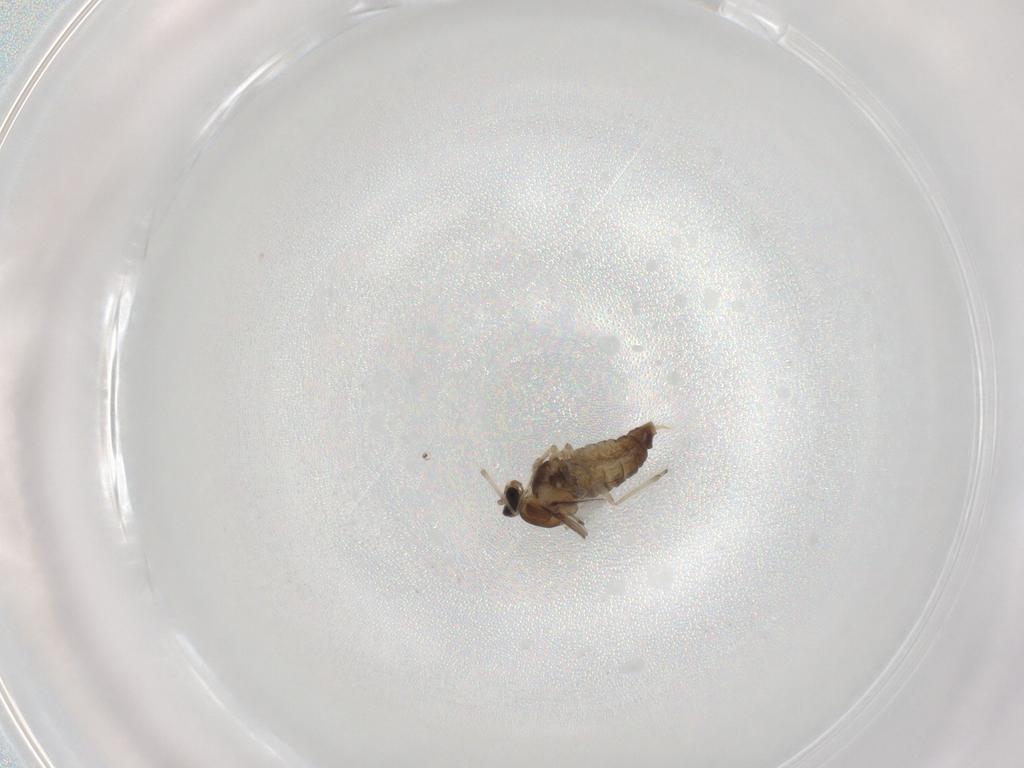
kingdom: Animalia
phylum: Arthropoda
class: Insecta
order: Diptera
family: Cecidomyiidae
